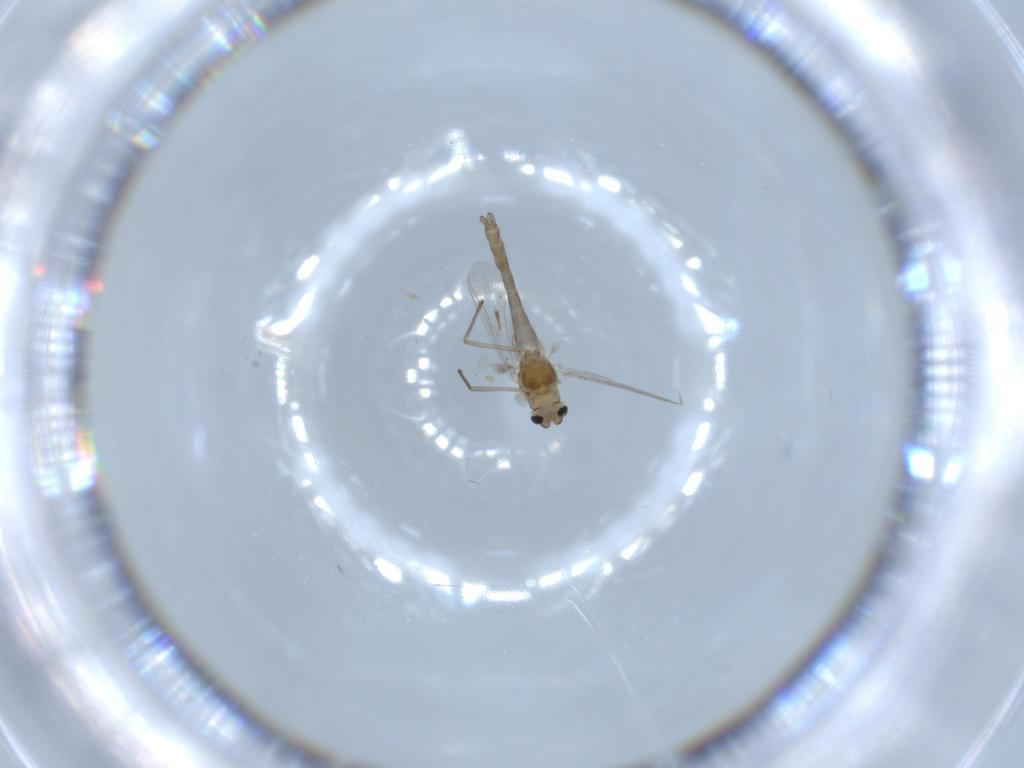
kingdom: Animalia
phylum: Arthropoda
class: Insecta
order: Diptera
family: Chironomidae
